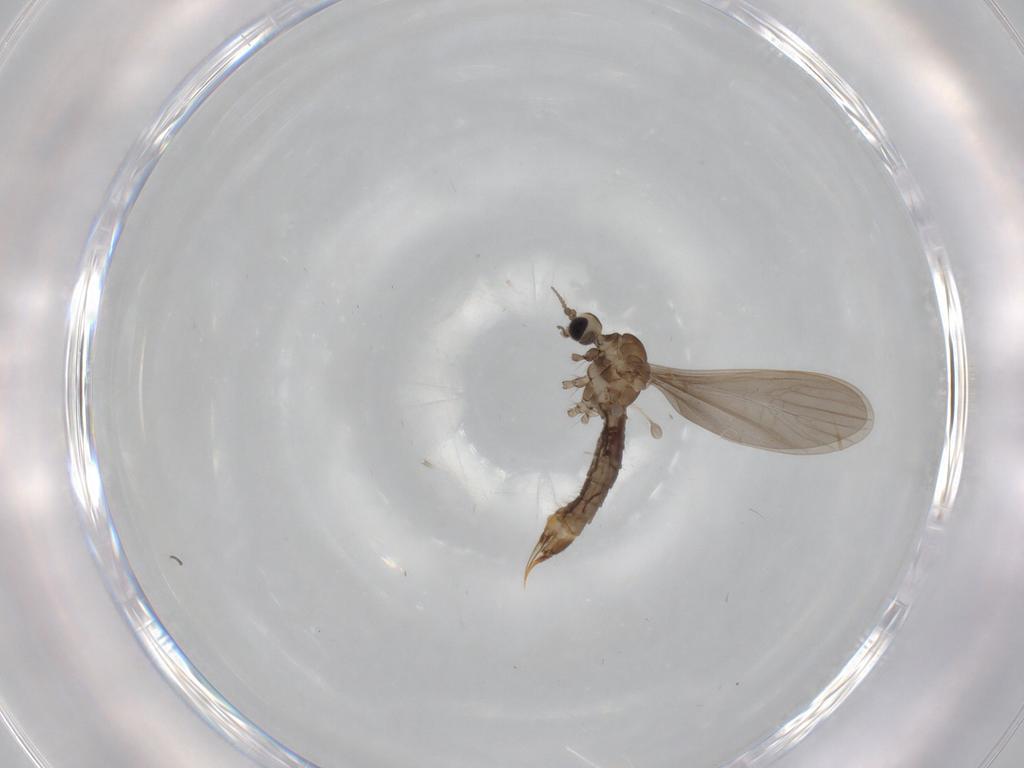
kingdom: Animalia
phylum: Arthropoda
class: Insecta
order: Diptera
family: Limoniidae
